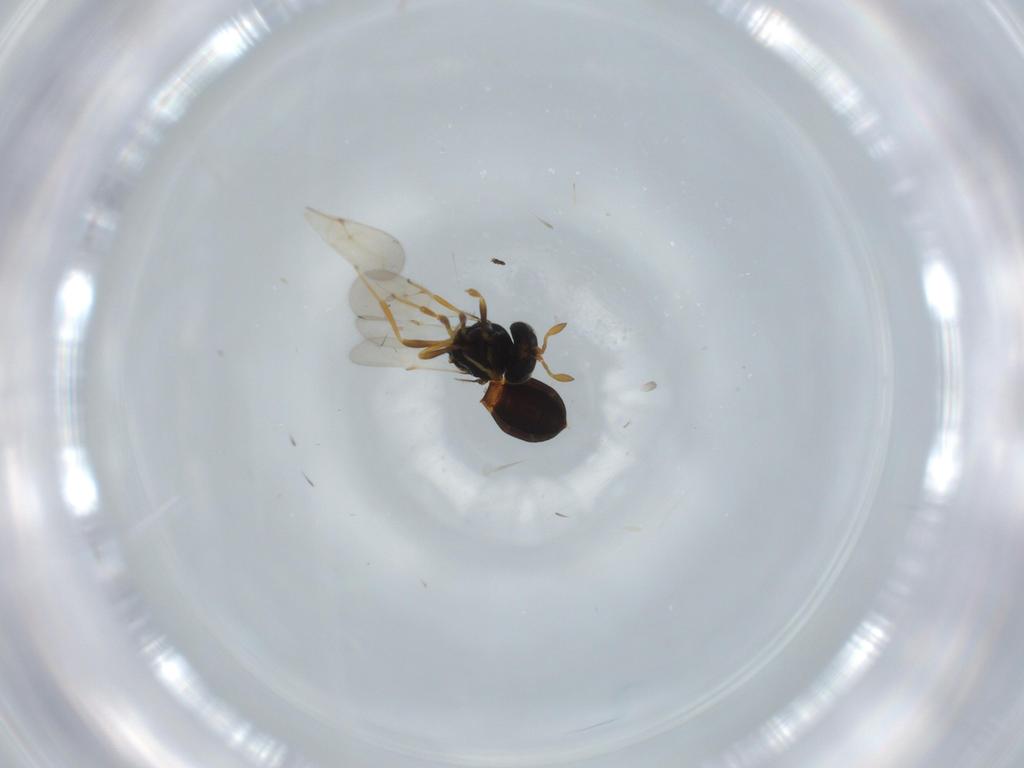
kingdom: Animalia
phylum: Arthropoda
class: Insecta
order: Hymenoptera
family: Scelionidae
